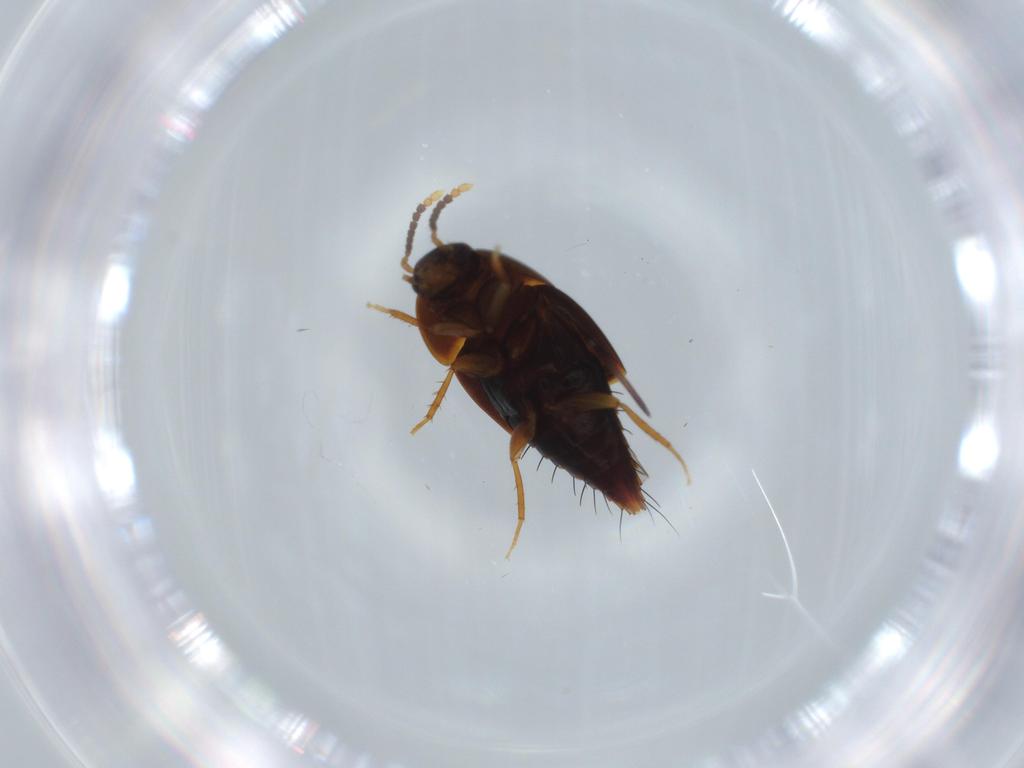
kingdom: Animalia
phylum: Arthropoda
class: Insecta
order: Coleoptera
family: Staphylinidae
